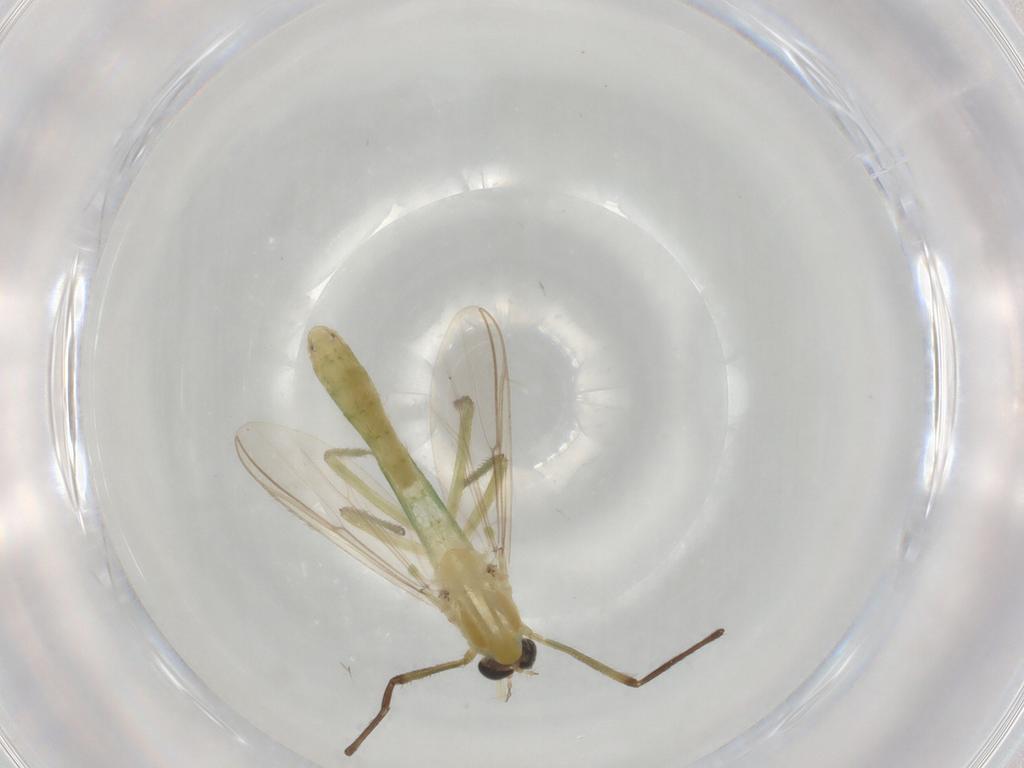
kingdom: Animalia
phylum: Arthropoda
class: Insecta
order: Diptera
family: Chironomidae
